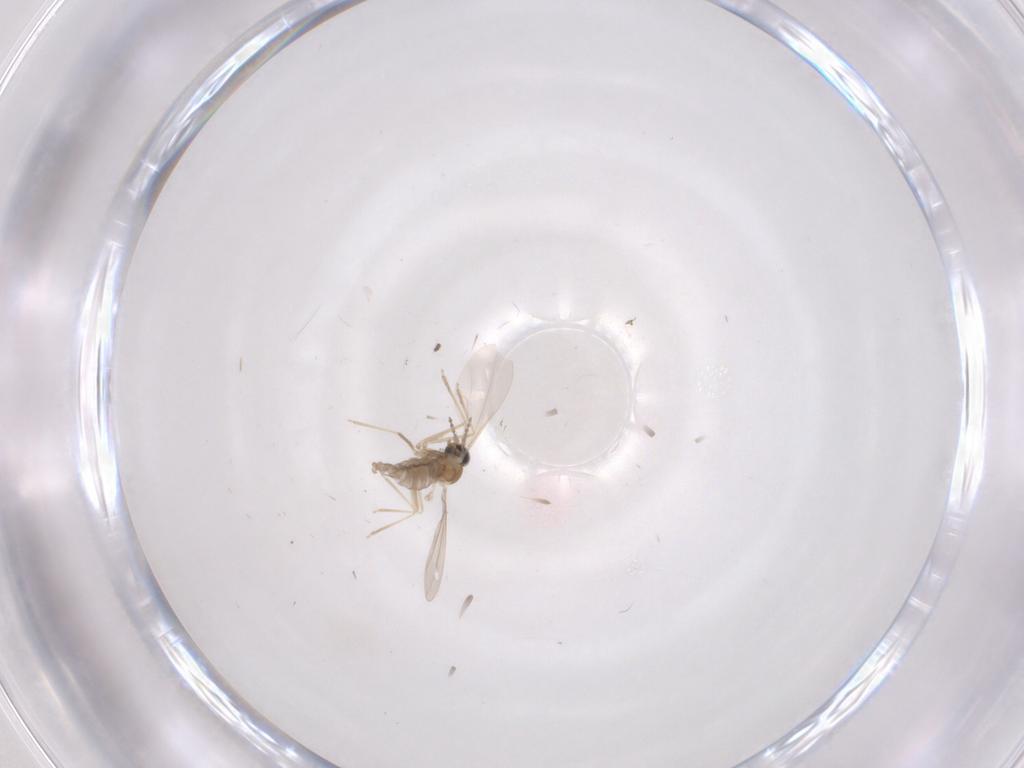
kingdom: Animalia
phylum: Arthropoda
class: Insecta
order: Diptera
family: Cecidomyiidae
